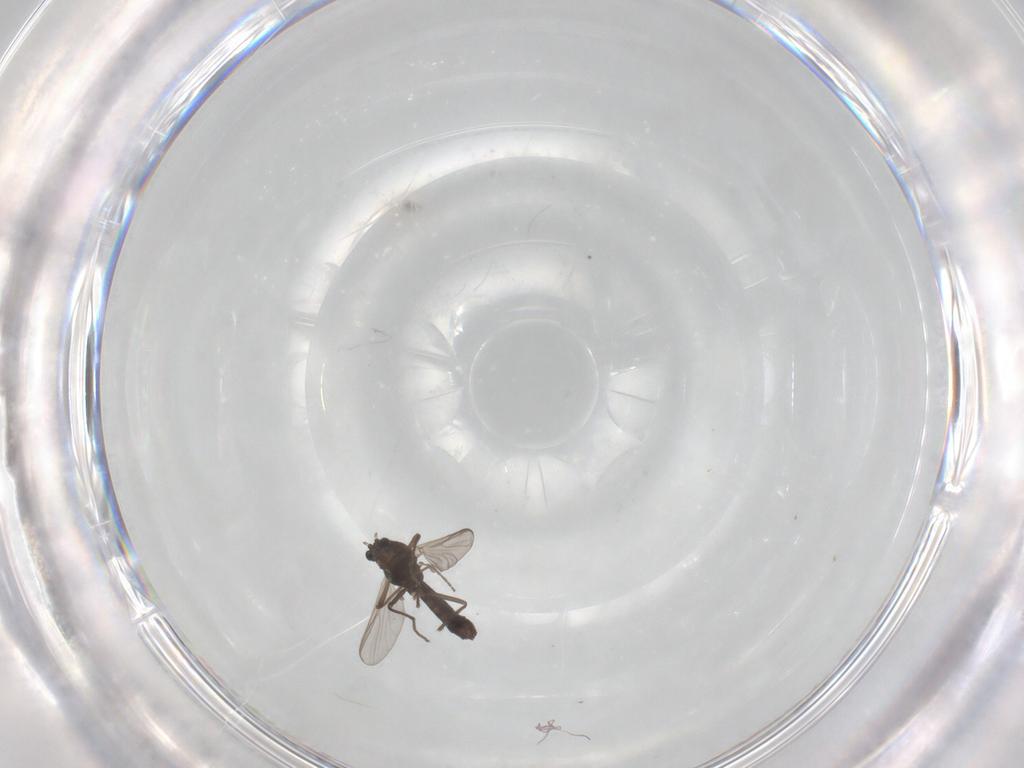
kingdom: Animalia
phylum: Arthropoda
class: Insecta
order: Diptera
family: Chironomidae
